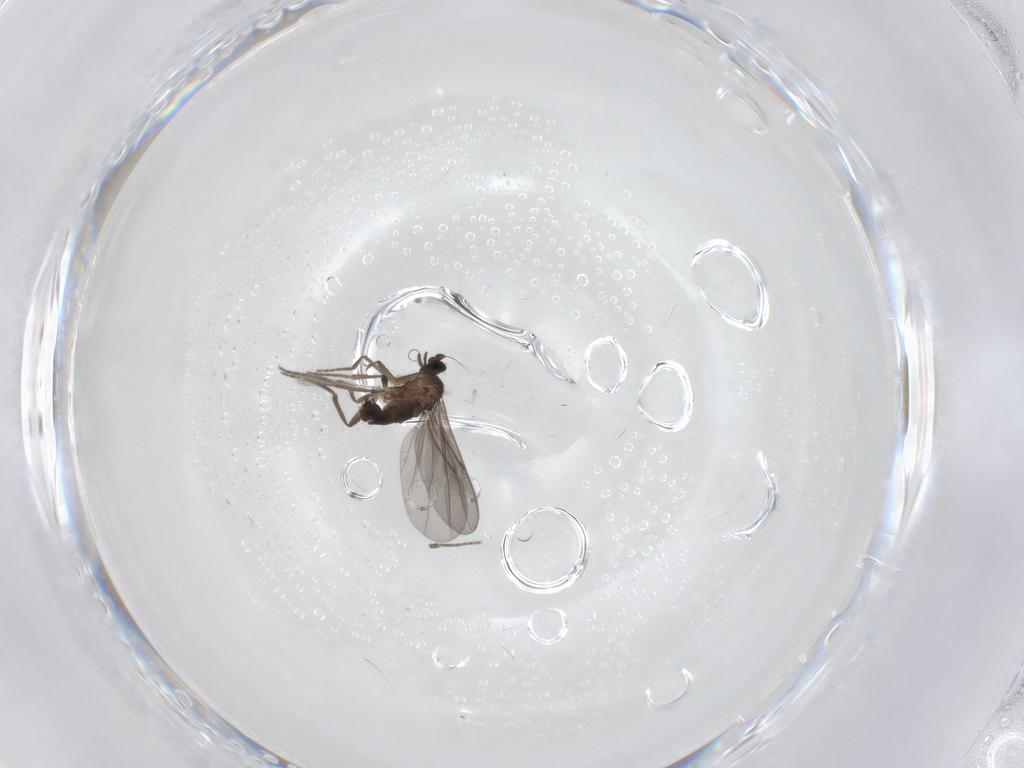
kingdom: Animalia
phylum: Arthropoda
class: Insecta
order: Diptera
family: Phoridae
